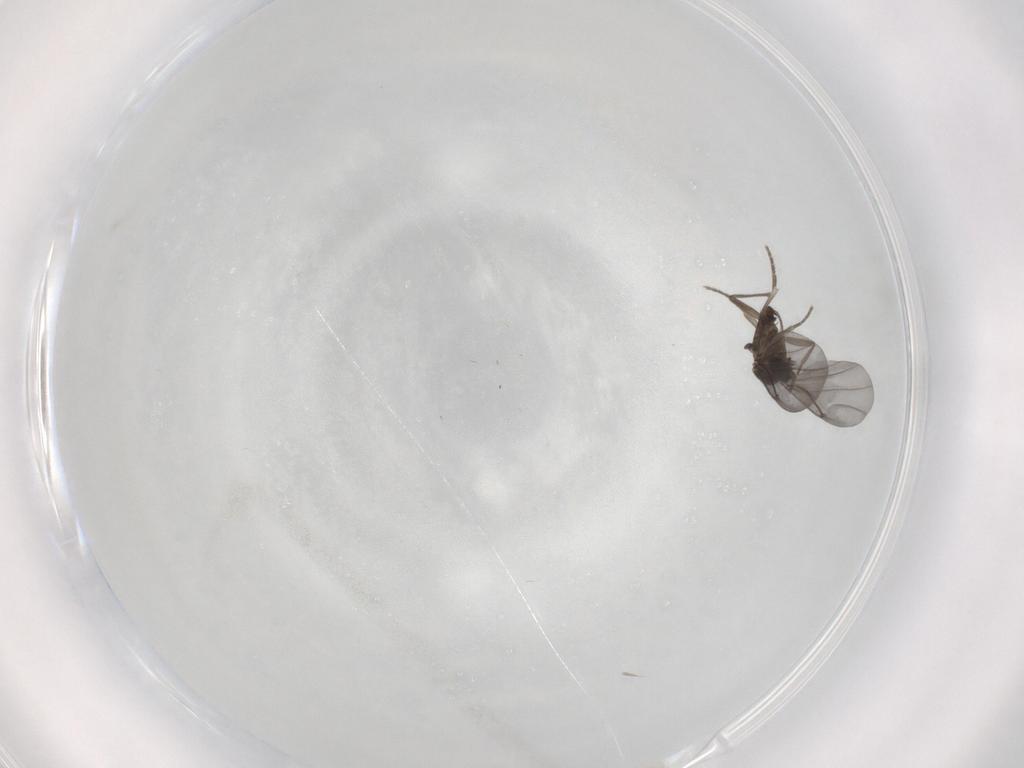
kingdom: Animalia
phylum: Arthropoda
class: Insecta
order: Diptera
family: Phoridae
